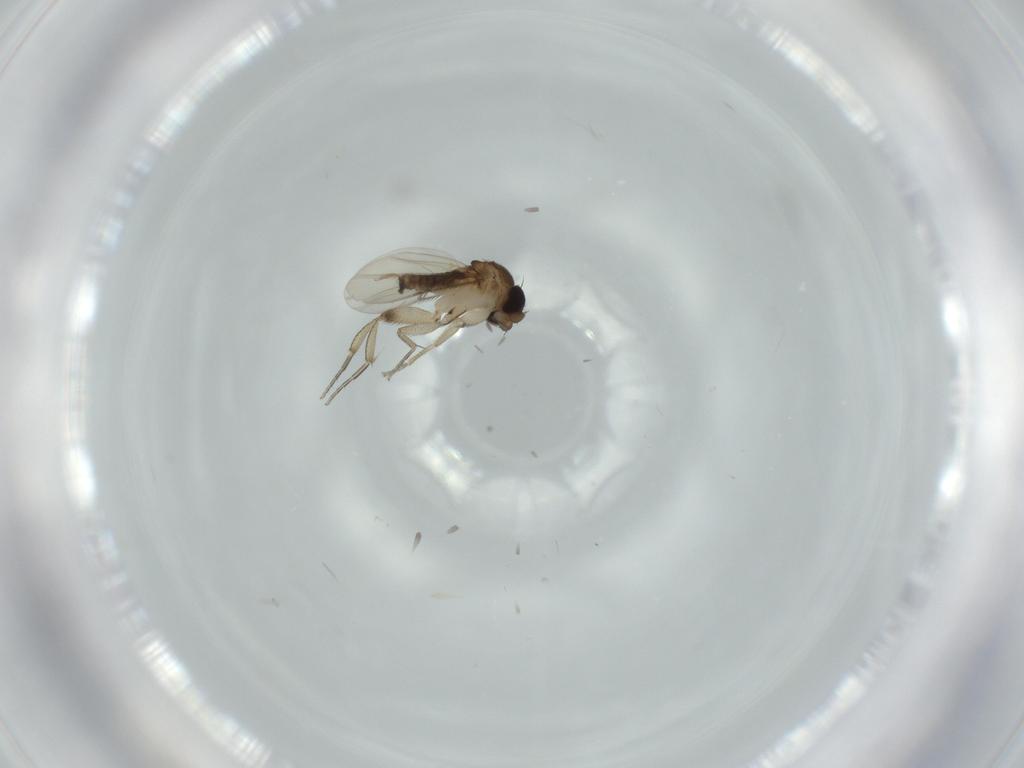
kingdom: Animalia
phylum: Arthropoda
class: Insecta
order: Diptera
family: Phoridae
